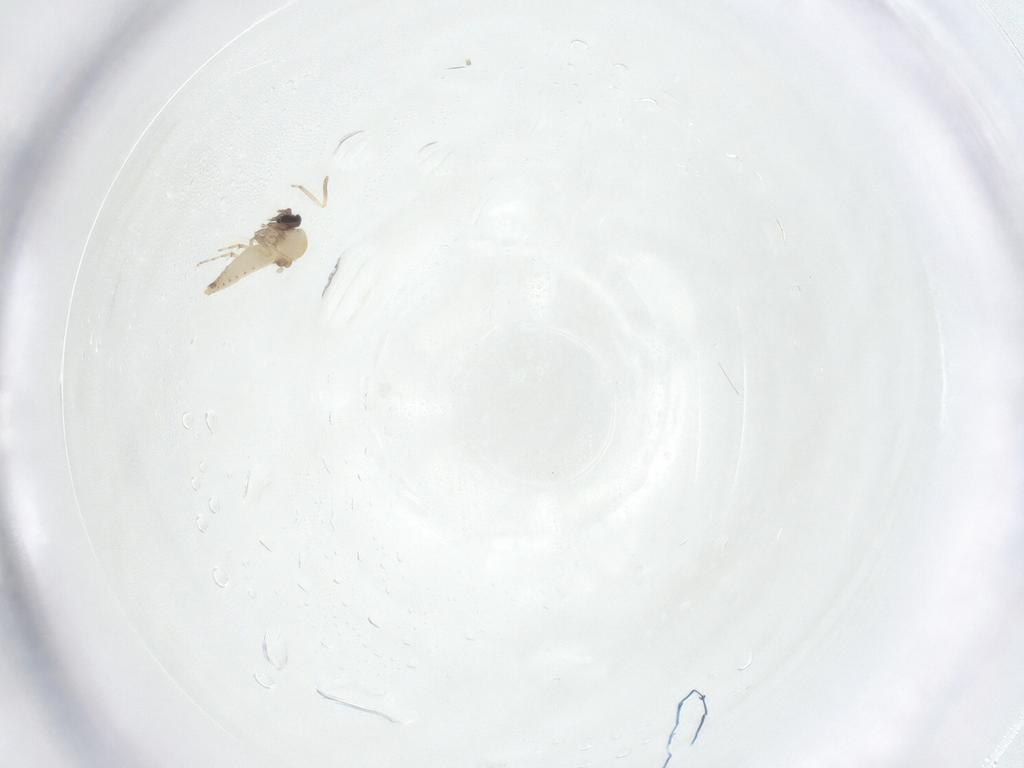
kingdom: Animalia
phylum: Arthropoda
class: Insecta
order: Diptera
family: Ceratopogonidae
